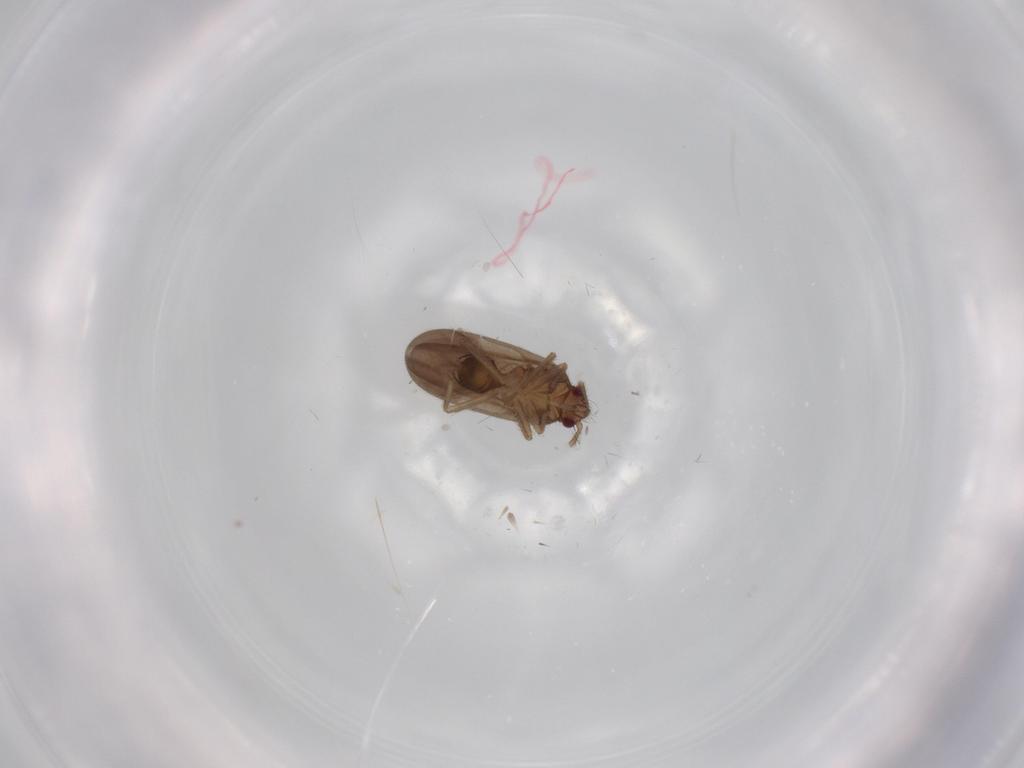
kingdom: Animalia
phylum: Arthropoda
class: Insecta
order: Hemiptera
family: Ceratocombidae
